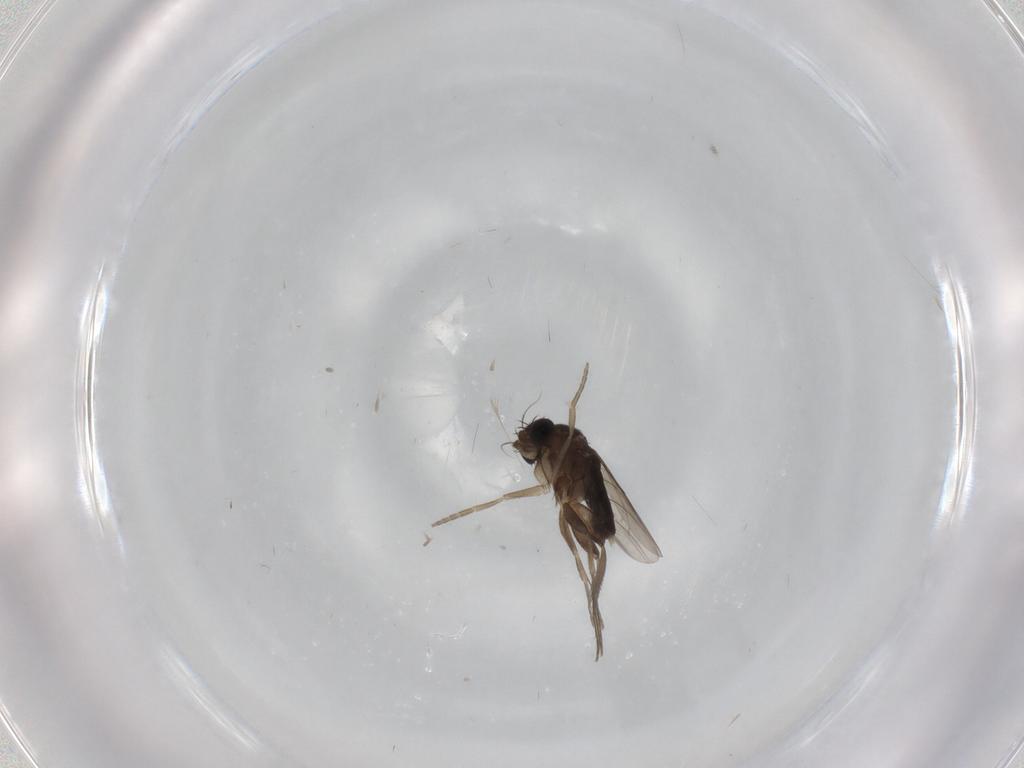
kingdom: Animalia
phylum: Arthropoda
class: Insecta
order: Diptera
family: Phoridae
